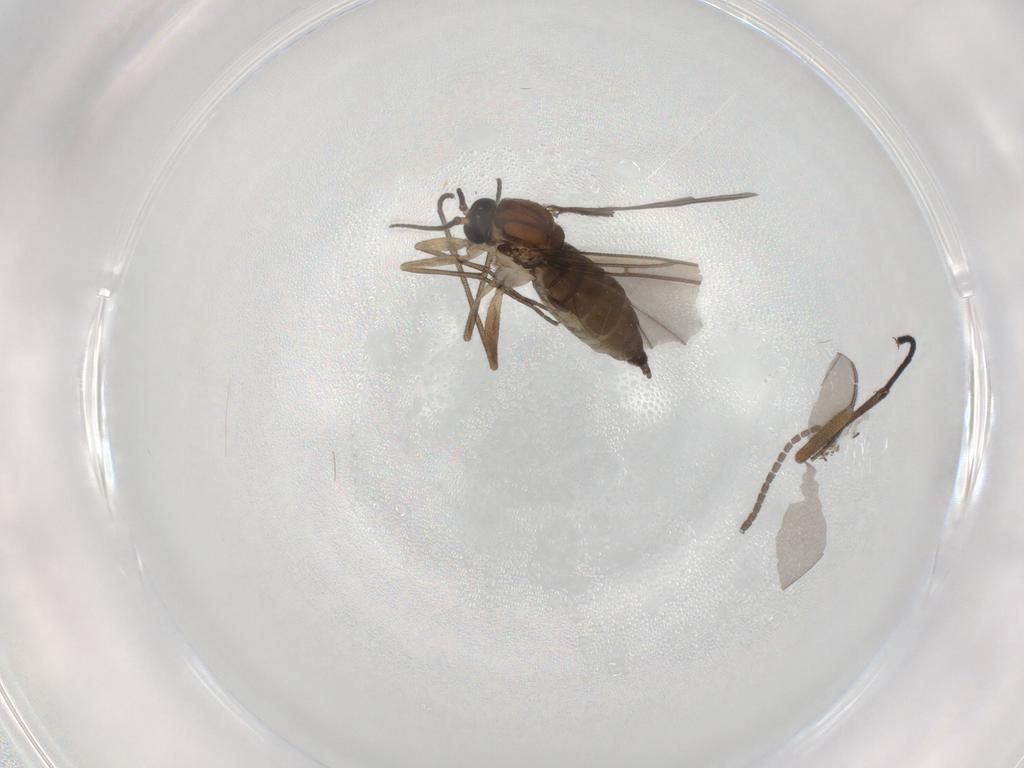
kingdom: Animalia
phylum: Arthropoda
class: Insecta
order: Diptera
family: Sciaridae
